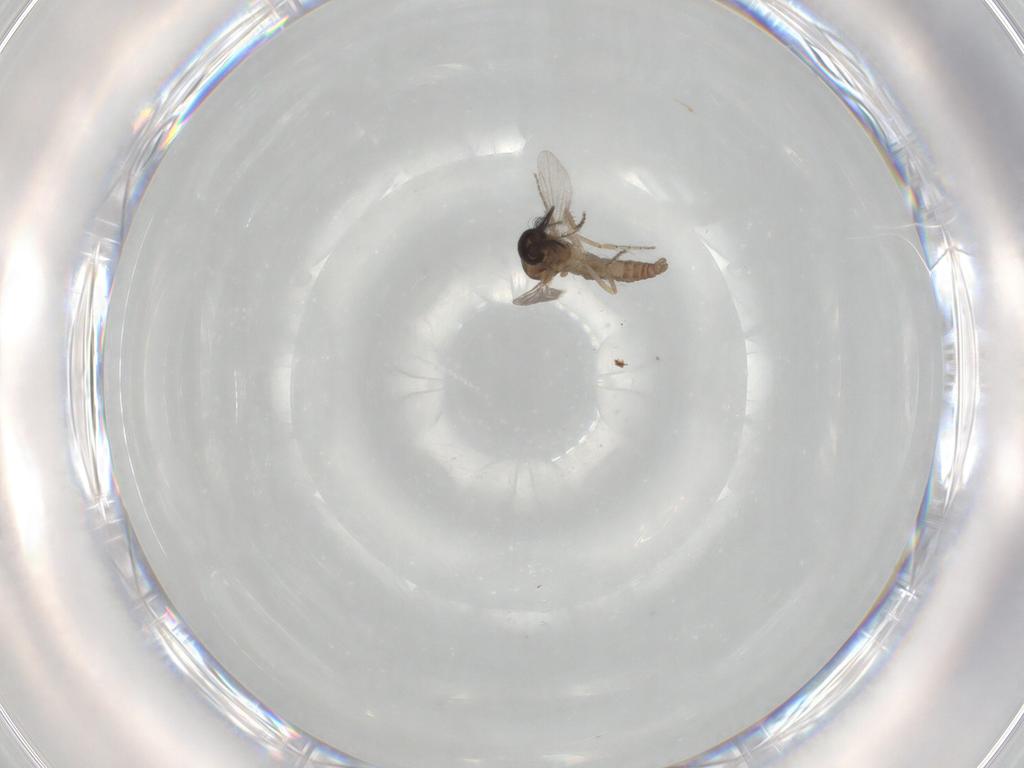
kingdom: Animalia
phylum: Arthropoda
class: Insecta
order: Diptera
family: Ceratopogonidae
